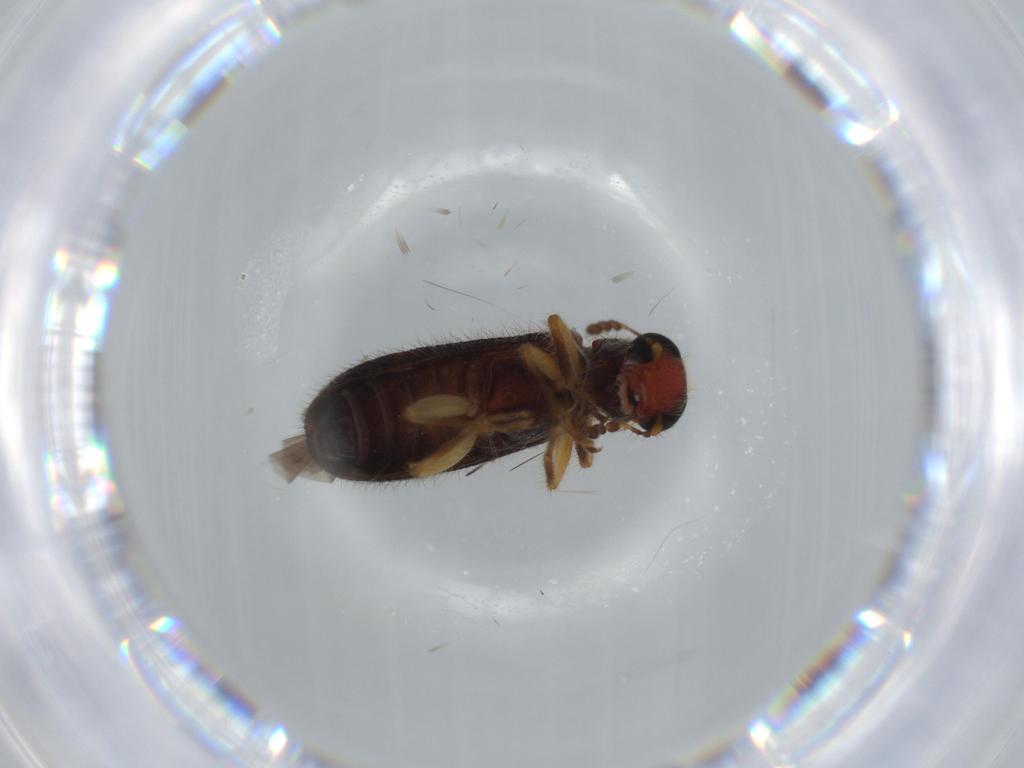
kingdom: Animalia
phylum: Arthropoda
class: Insecta
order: Coleoptera
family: Cleridae
